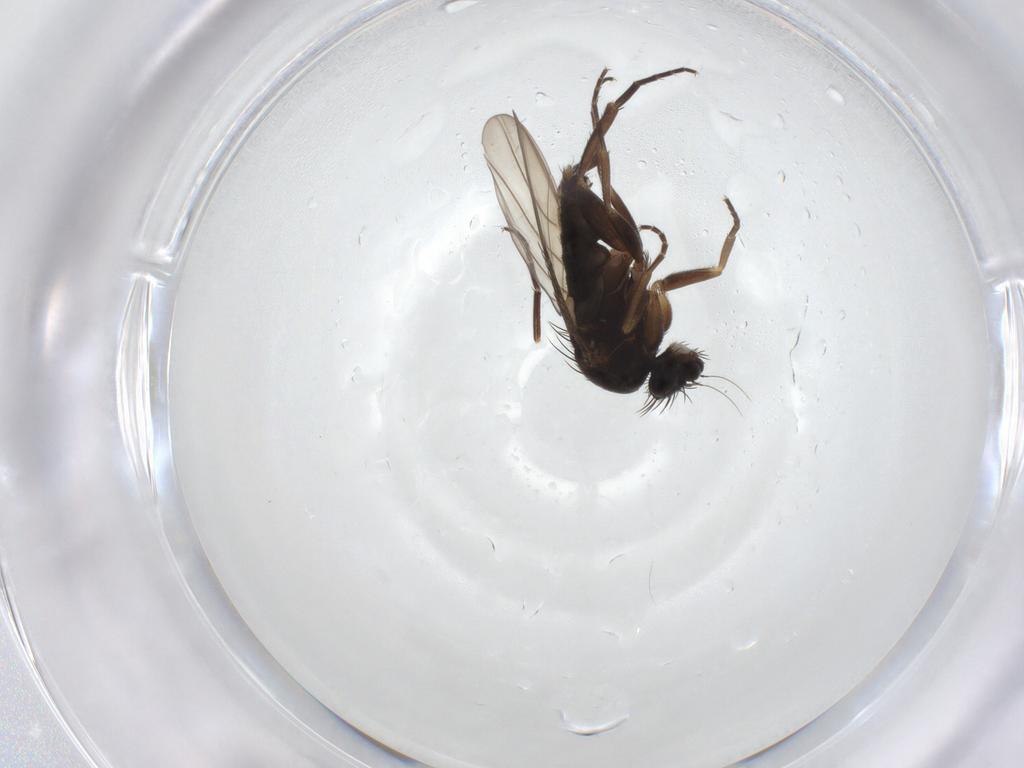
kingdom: Animalia
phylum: Arthropoda
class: Insecta
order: Diptera
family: Phoridae
